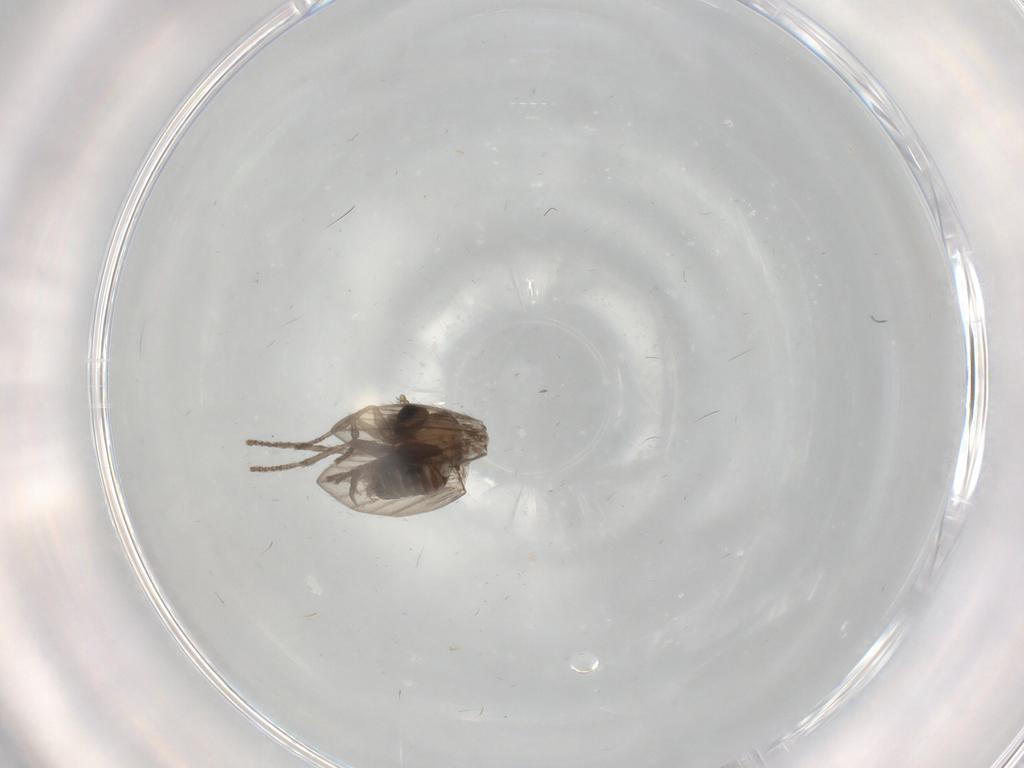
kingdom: Animalia
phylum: Arthropoda
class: Insecta
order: Diptera
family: Psychodidae
